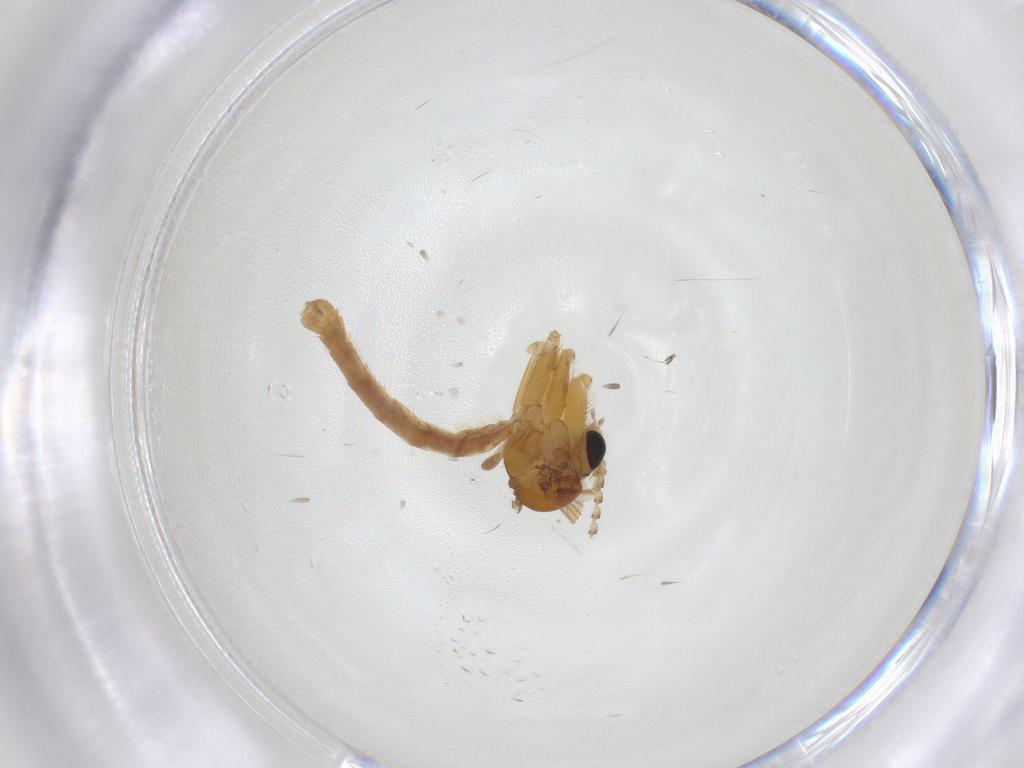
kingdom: Animalia
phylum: Arthropoda
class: Insecta
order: Diptera
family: Mycetophilidae
